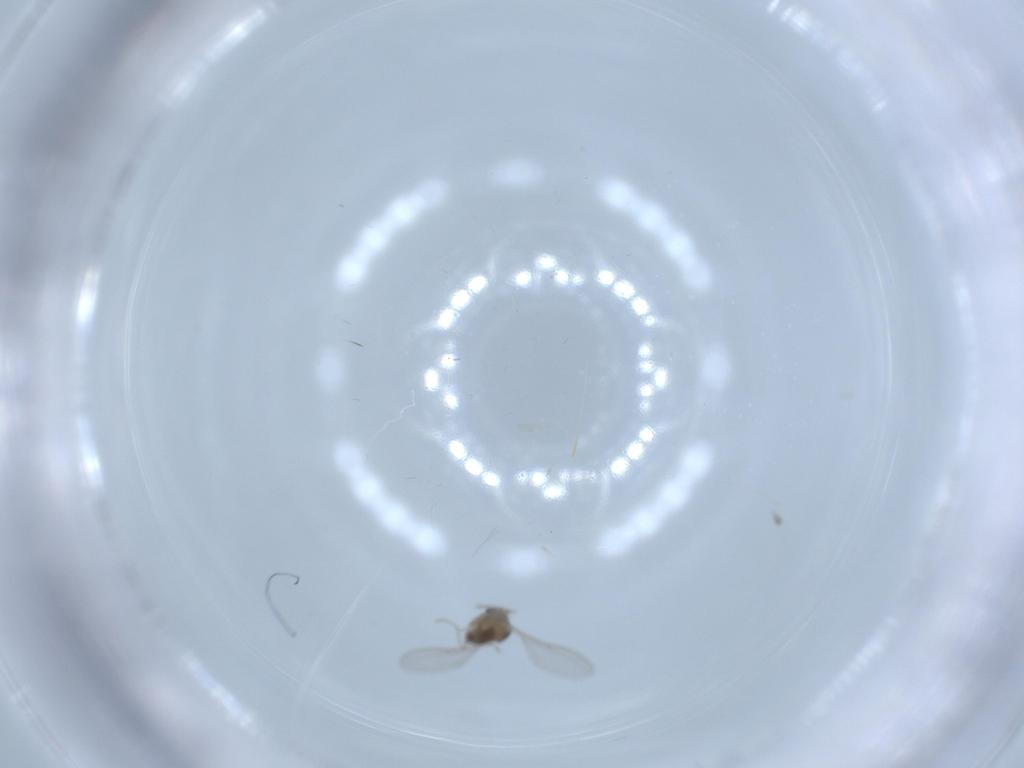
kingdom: Animalia
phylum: Arthropoda
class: Insecta
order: Diptera
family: Cecidomyiidae
